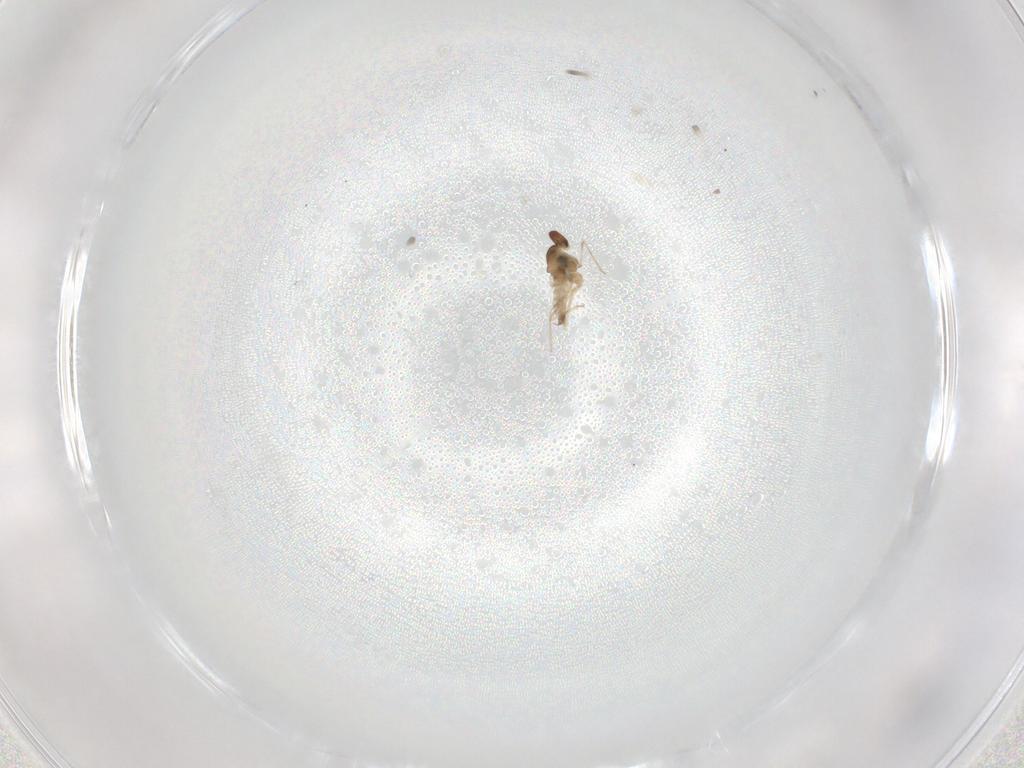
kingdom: Animalia
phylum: Arthropoda
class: Insecta
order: Diptera
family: Cecidomyiidae
